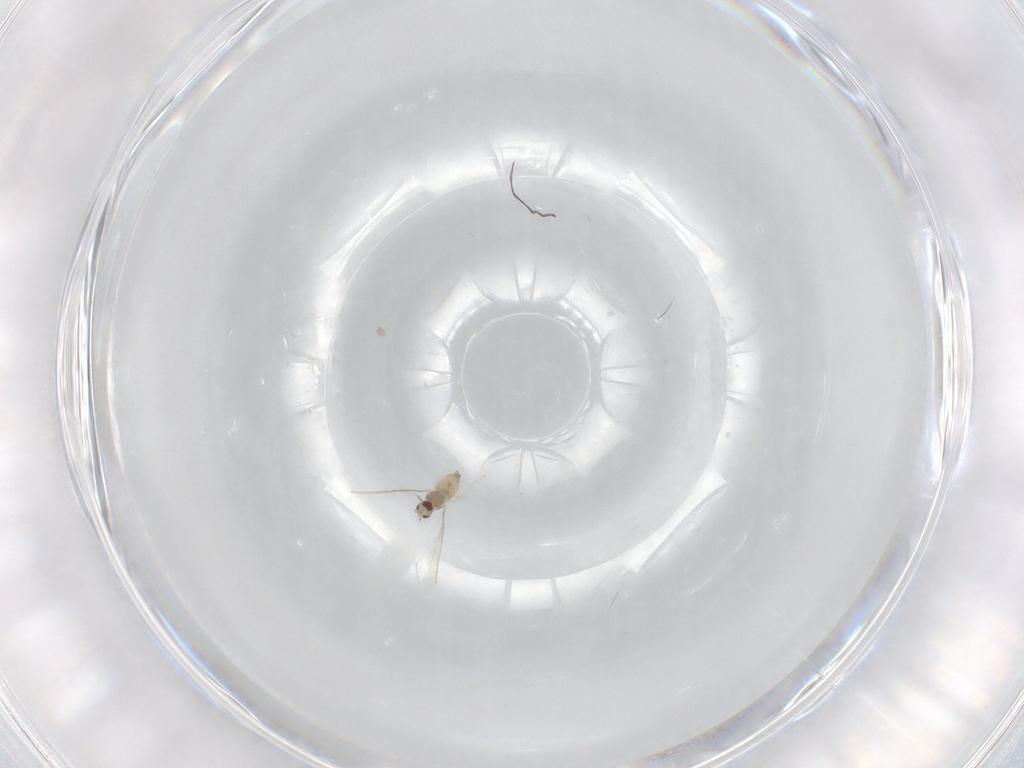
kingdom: Animalia
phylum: Arthropoda
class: Insecta
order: Diptera
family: Cecidomyiidae
